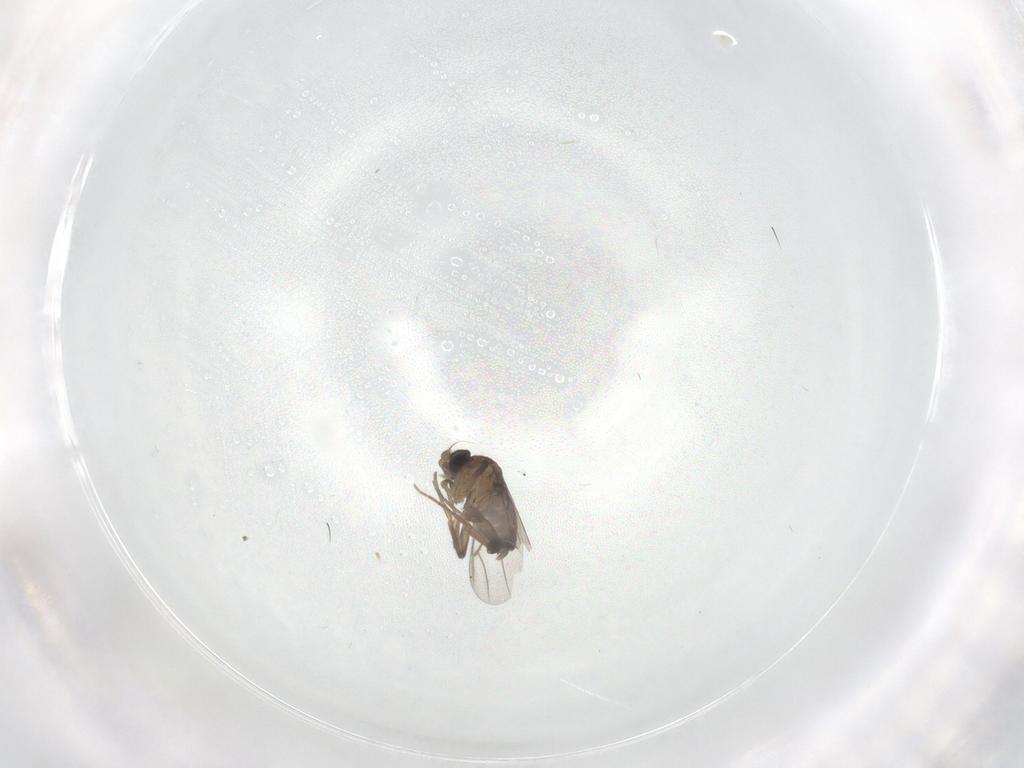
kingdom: Animalia
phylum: Arthropoda
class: Insecta
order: Diptera
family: Phoridae
